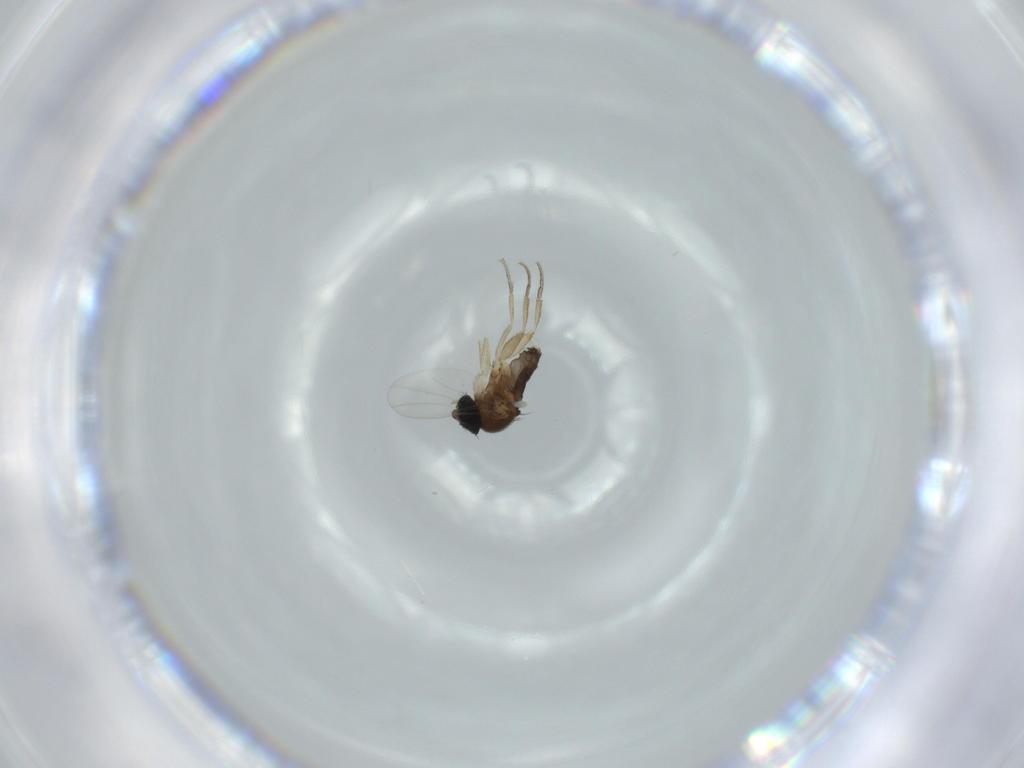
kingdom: Animalia
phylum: Arthropoda
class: Insecta
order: Diptera
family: Phoridae
